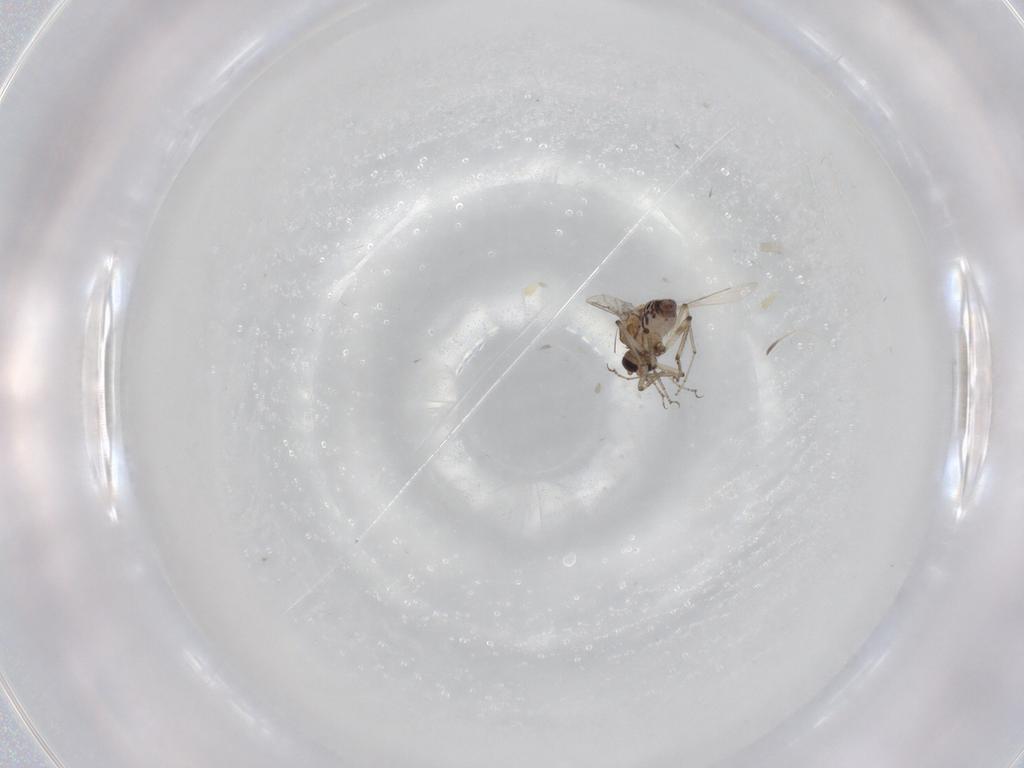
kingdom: Animalia
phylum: Arthropoda
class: Insecta
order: Diptera
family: Ceratopogonidae
